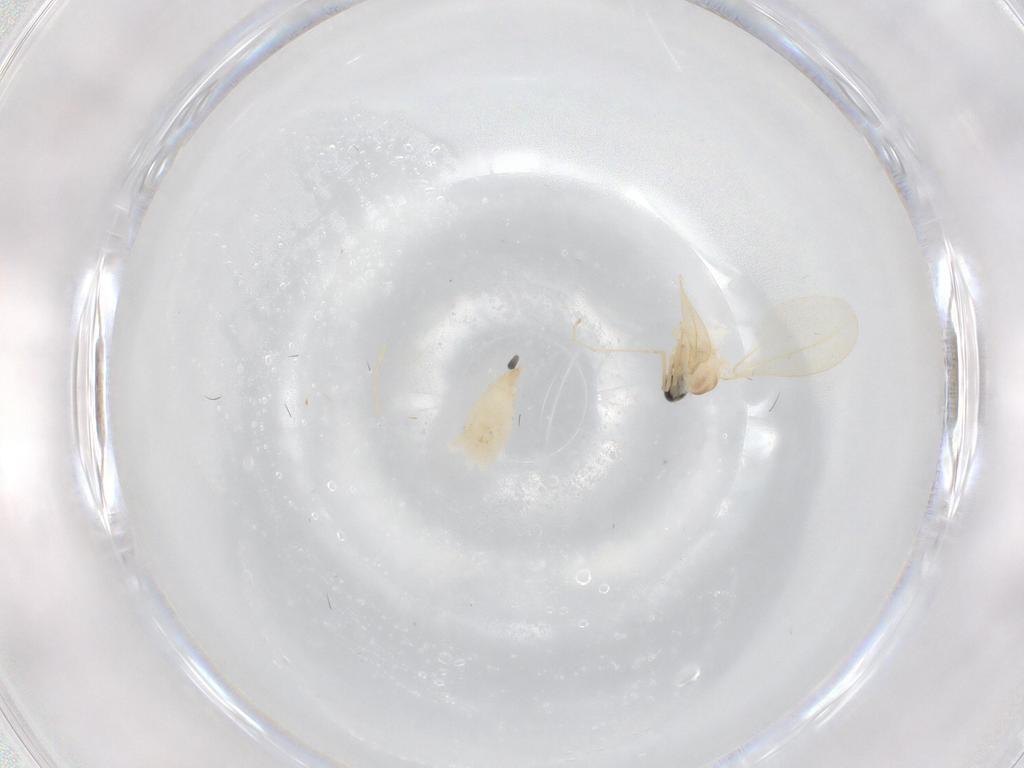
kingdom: Animalia
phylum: Arthropoda
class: Insecta
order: Diptera
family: Cecidomyiidae
